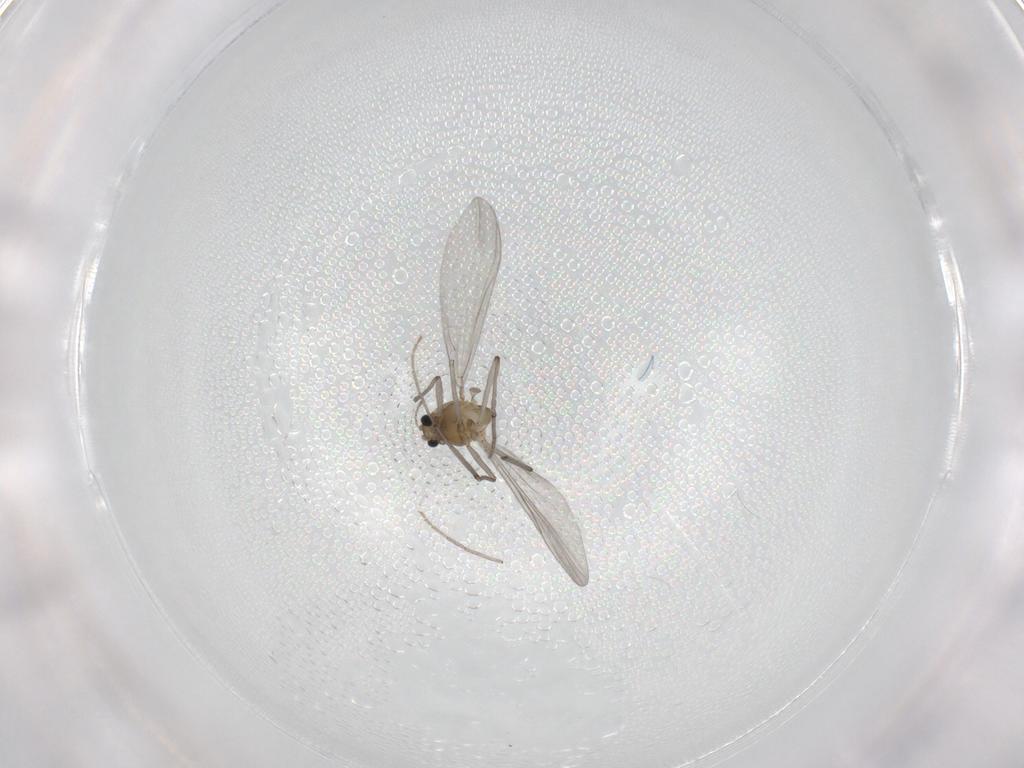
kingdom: Animalia
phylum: Arthropoda
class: Insecta
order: Diptera
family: Chironomidae
